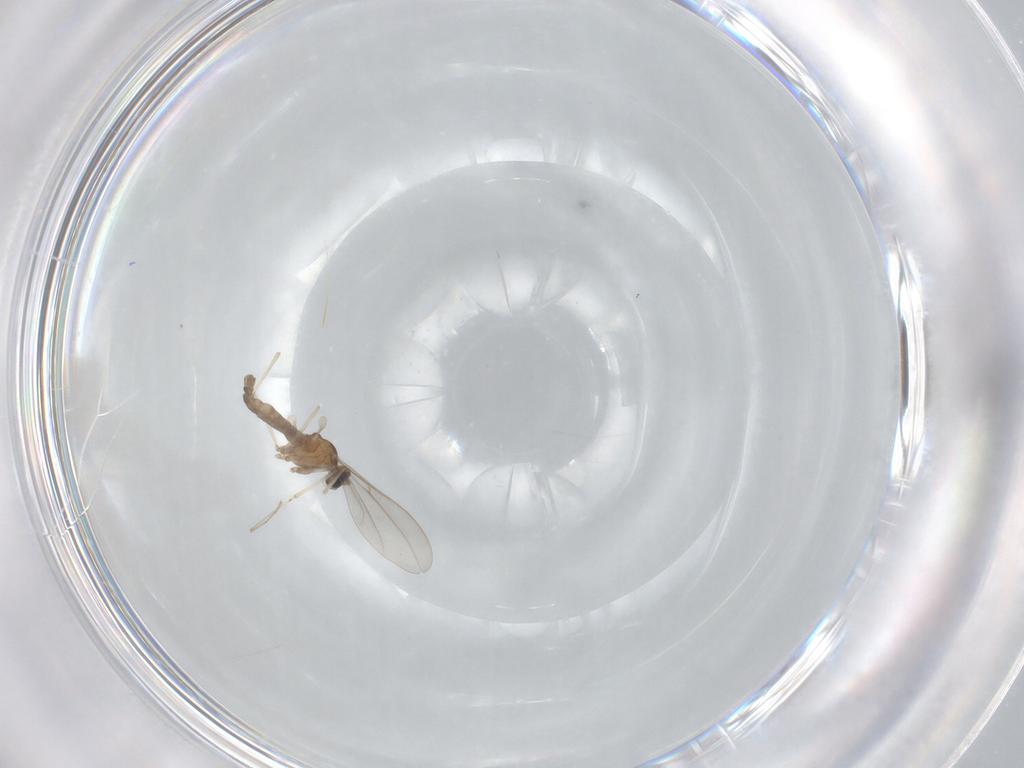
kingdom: Animalia
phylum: Arthropoda
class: Insecta
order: Diptera
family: Cecidomyiidae
